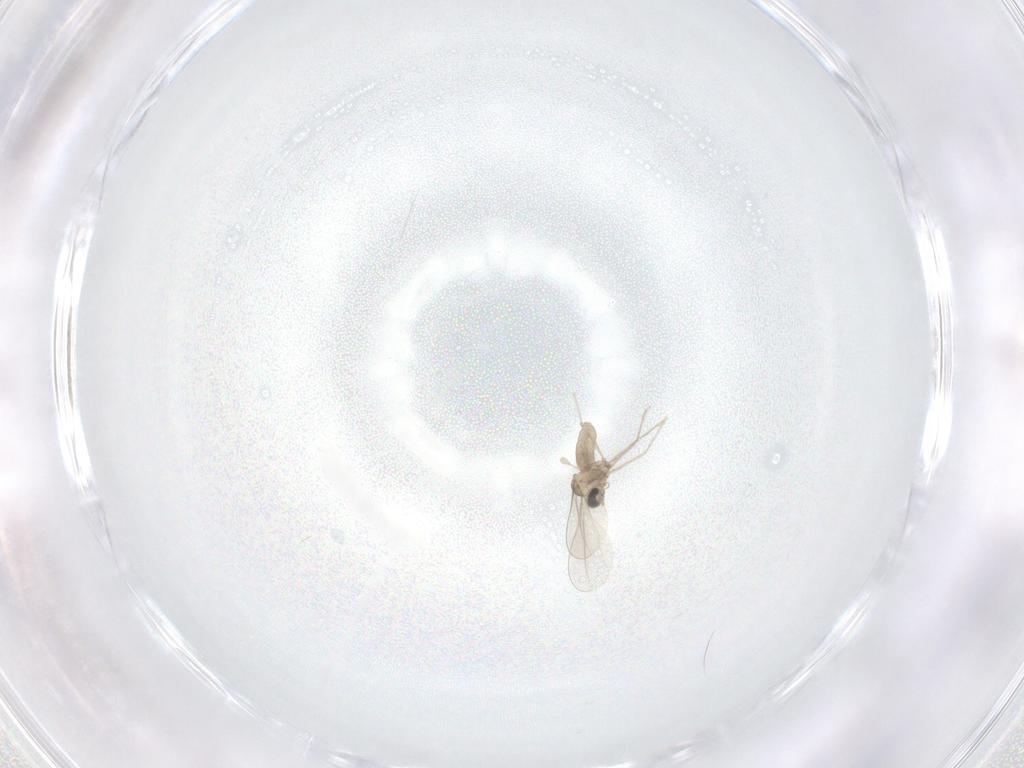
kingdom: Animalia
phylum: Arthropoda
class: Insecta
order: Diptera
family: Cecidomyiidae
